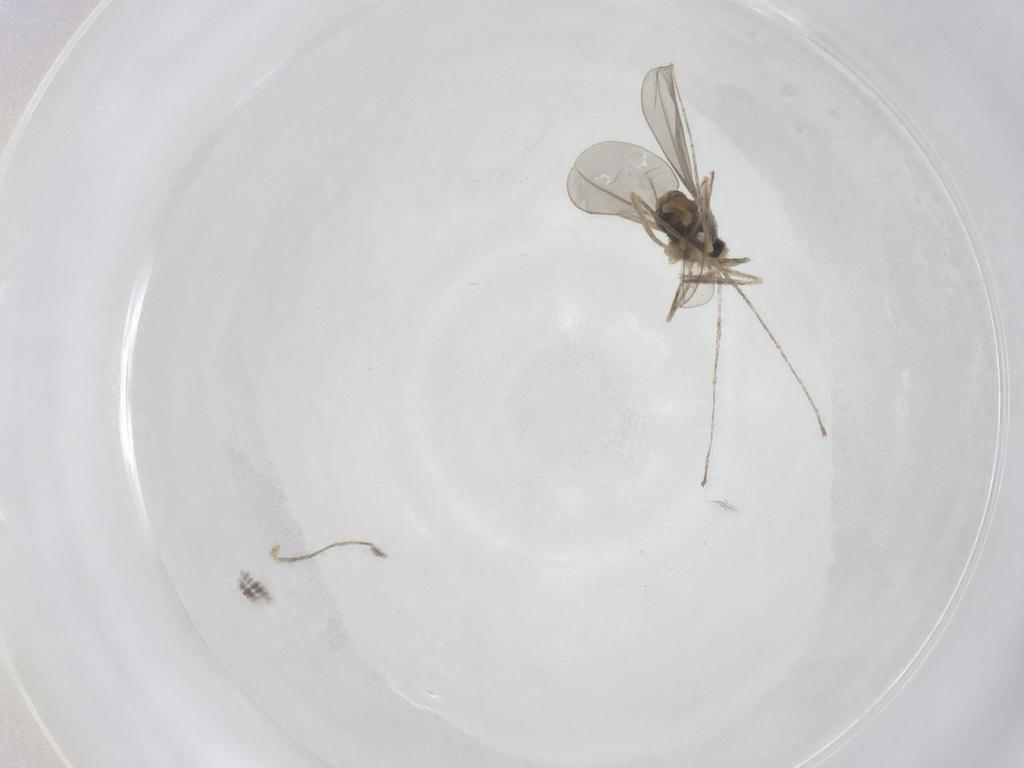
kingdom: Animalia
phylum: Arthropoda
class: Insecta
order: Diptera
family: Cecidomyiidae
